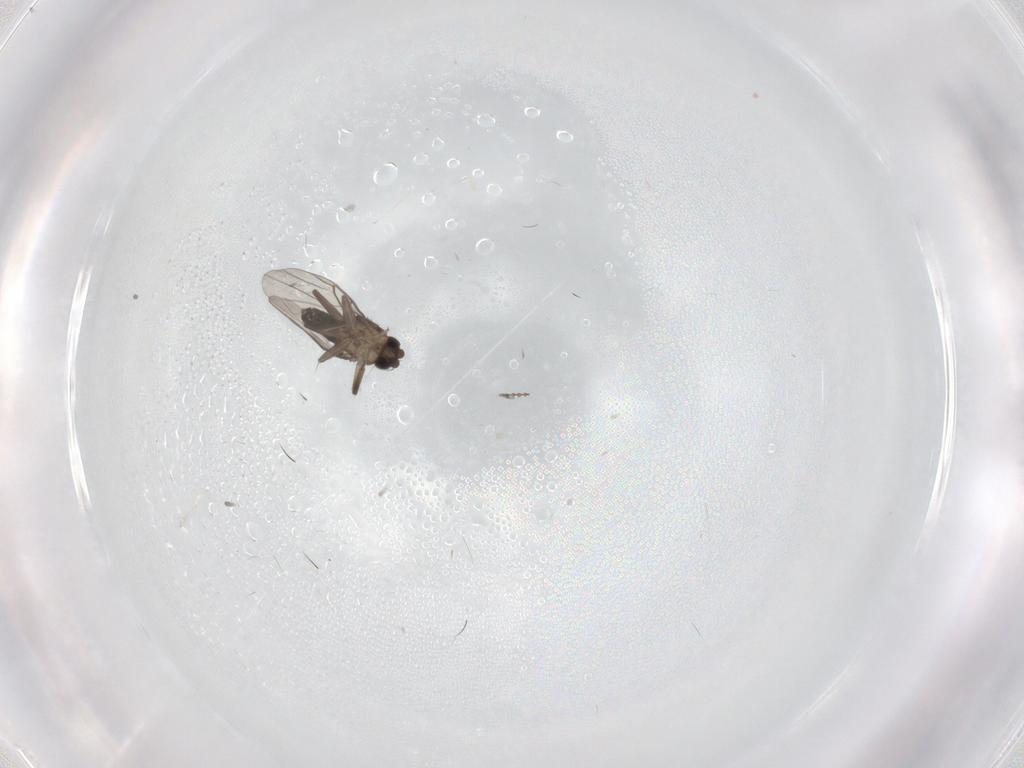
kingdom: Animalia
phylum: Arthropoda
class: Insecta
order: Diptera
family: Phoridae
